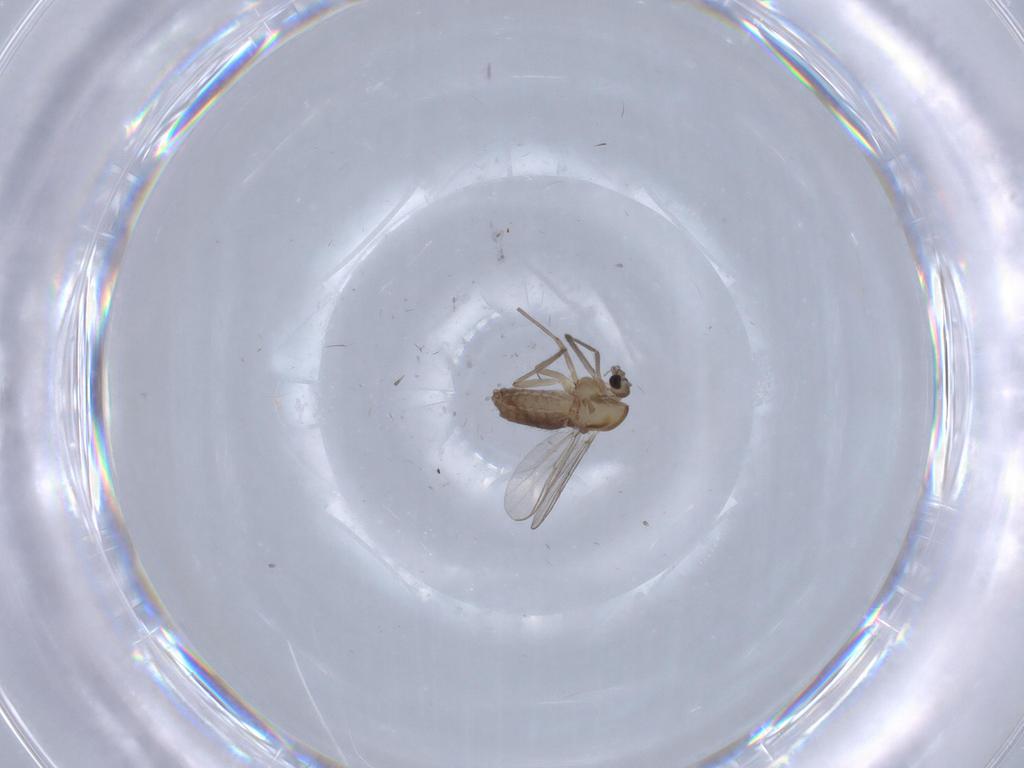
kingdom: Animalia
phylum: Arthropoda
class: Insecta
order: Diptera
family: Chironomidae
